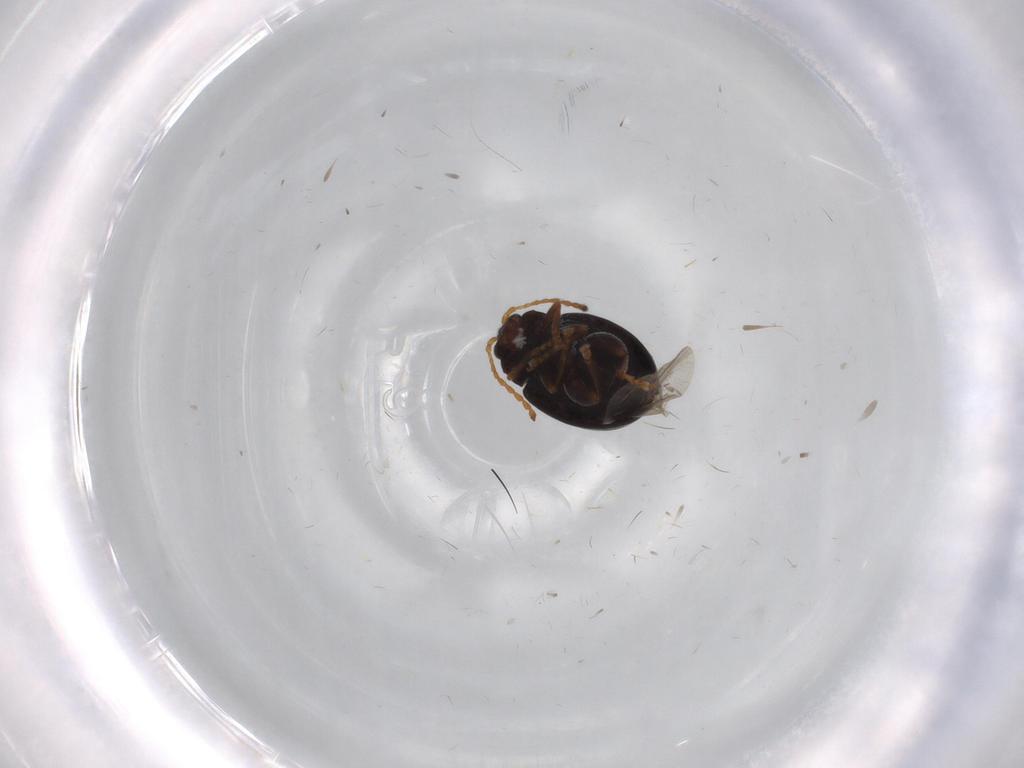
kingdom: Animalia
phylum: Arthropoda
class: Insecta
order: Coleoptera
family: Chrysomelidae
